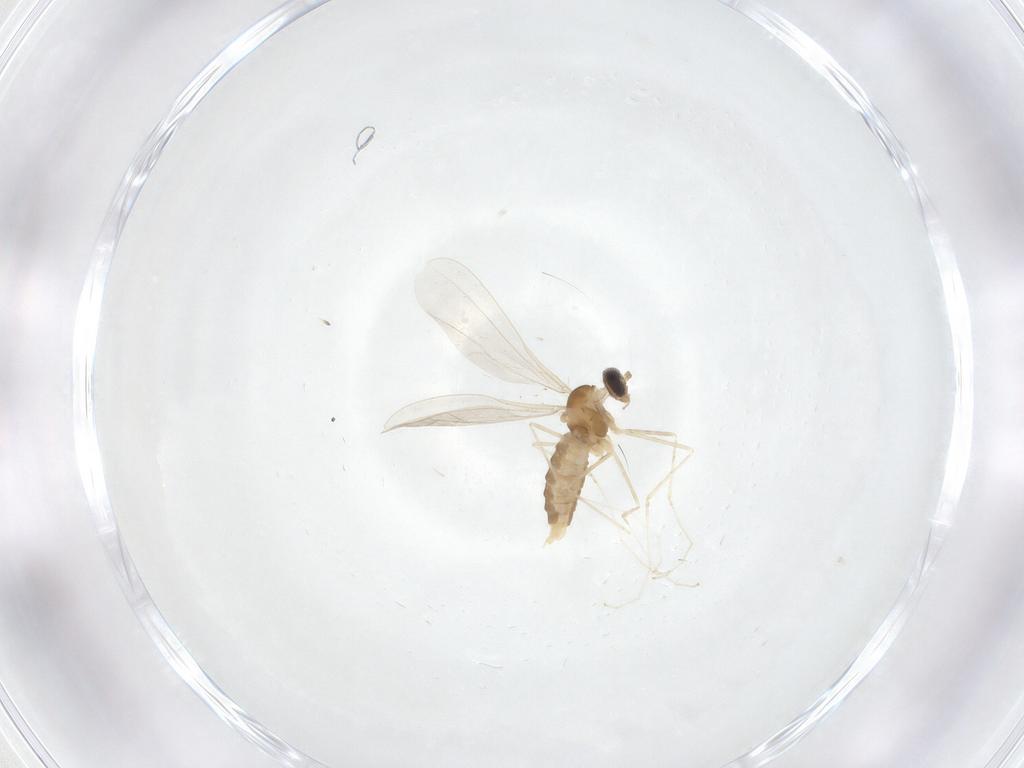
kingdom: Animalia
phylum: Arthropoda
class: Insecta
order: Diptera
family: Cecidomyiidae
